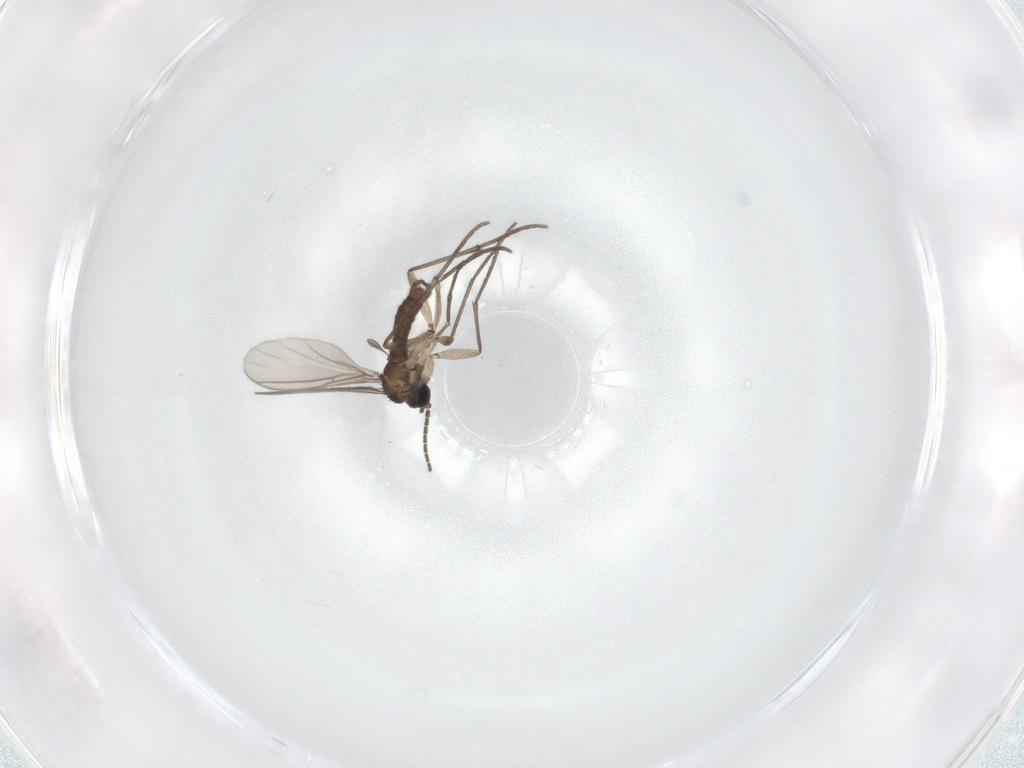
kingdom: Animalia
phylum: Arthropoda
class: Insecta
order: Diptera
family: Sciaridae
